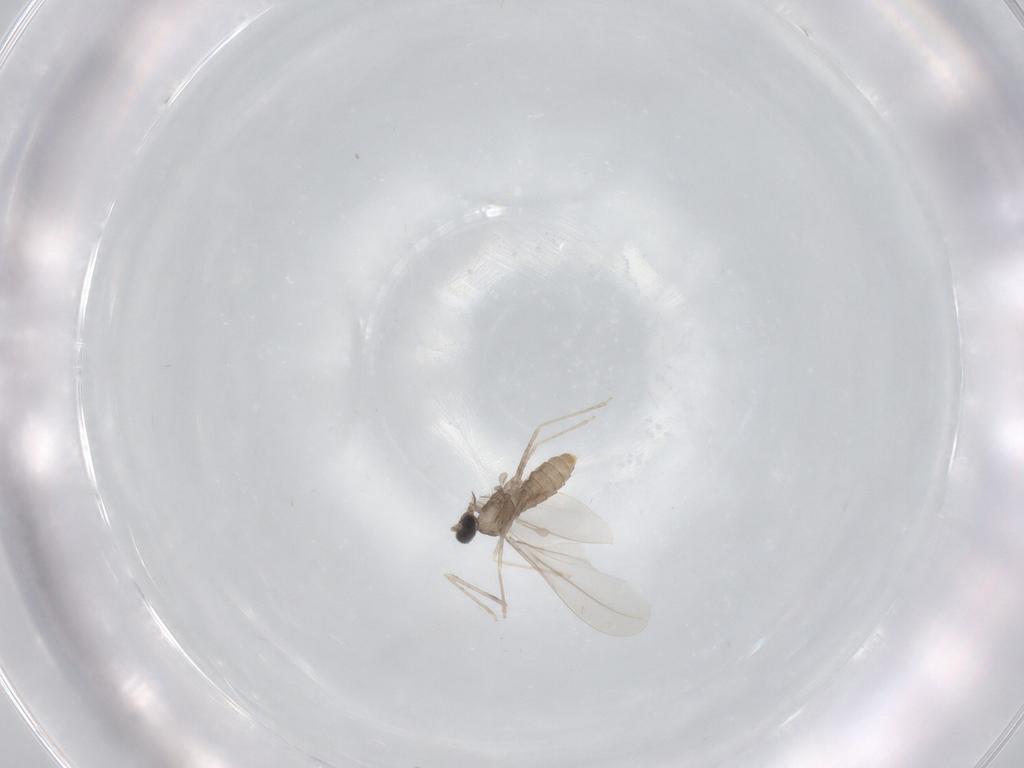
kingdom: Animalia
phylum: Arthropoda
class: Insecta
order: Diptera
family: Cecidomyiidae
